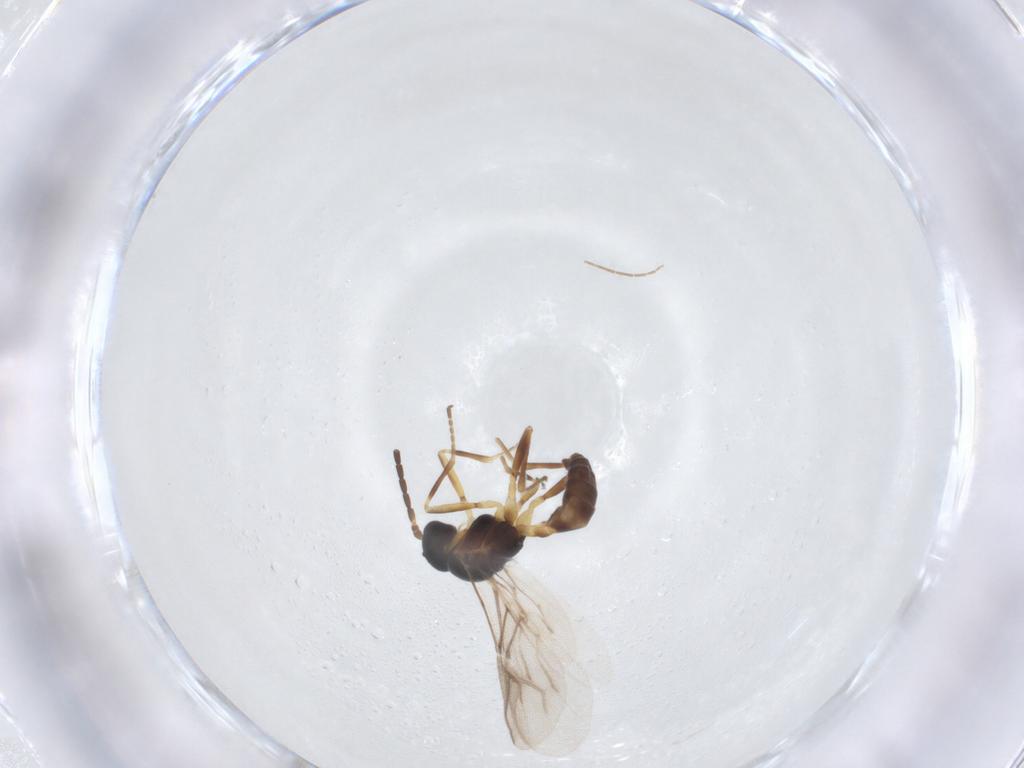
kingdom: Animalia
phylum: Arthropoda
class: Insecta
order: Hymenoptera
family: Braconidae
